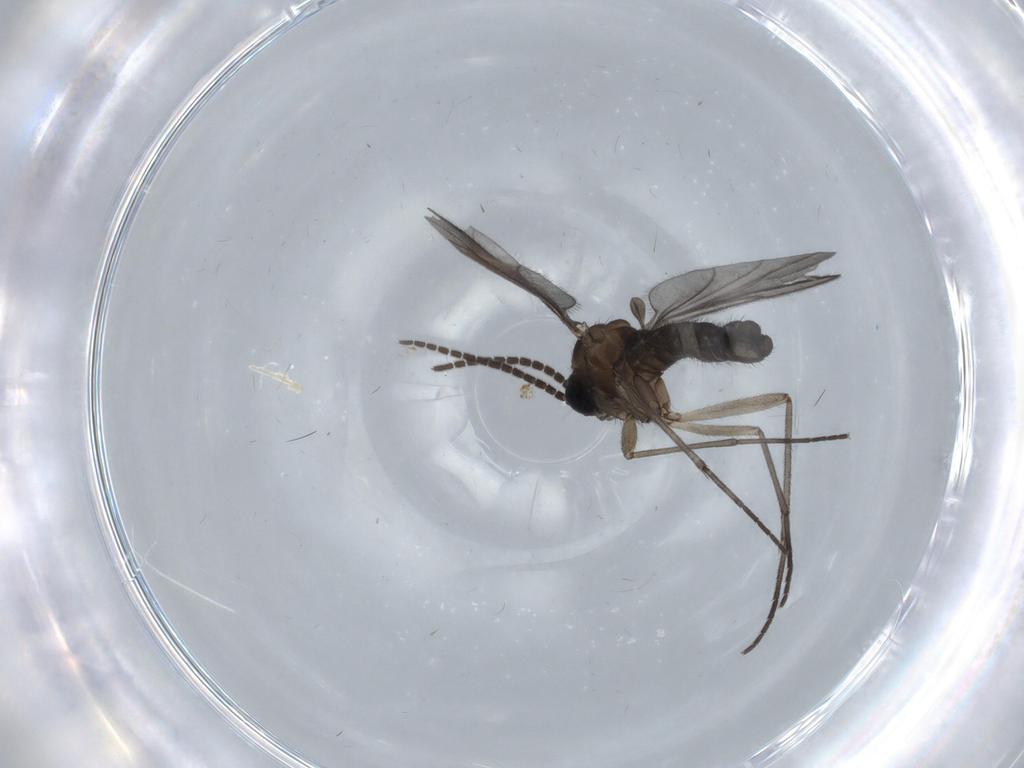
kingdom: Animalia
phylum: Arthropoda
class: Insecta
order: Diptera
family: Sciaridae
